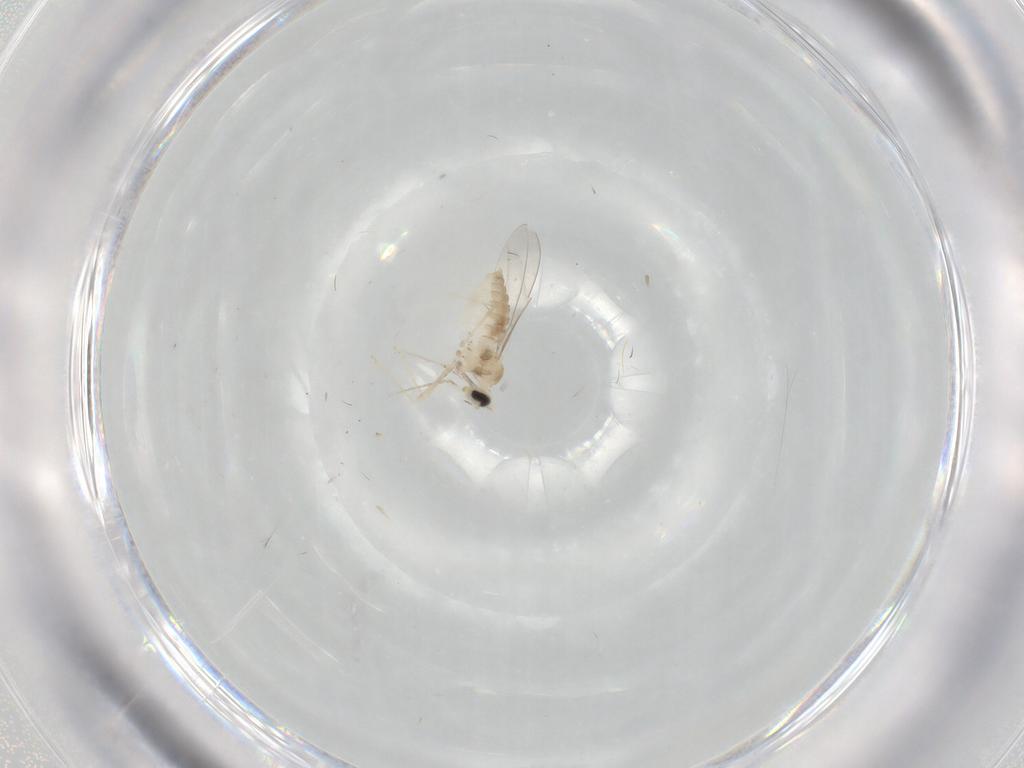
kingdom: Animalia
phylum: Arthropoda
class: Insecta
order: Diptera
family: Cecidomyiidae
